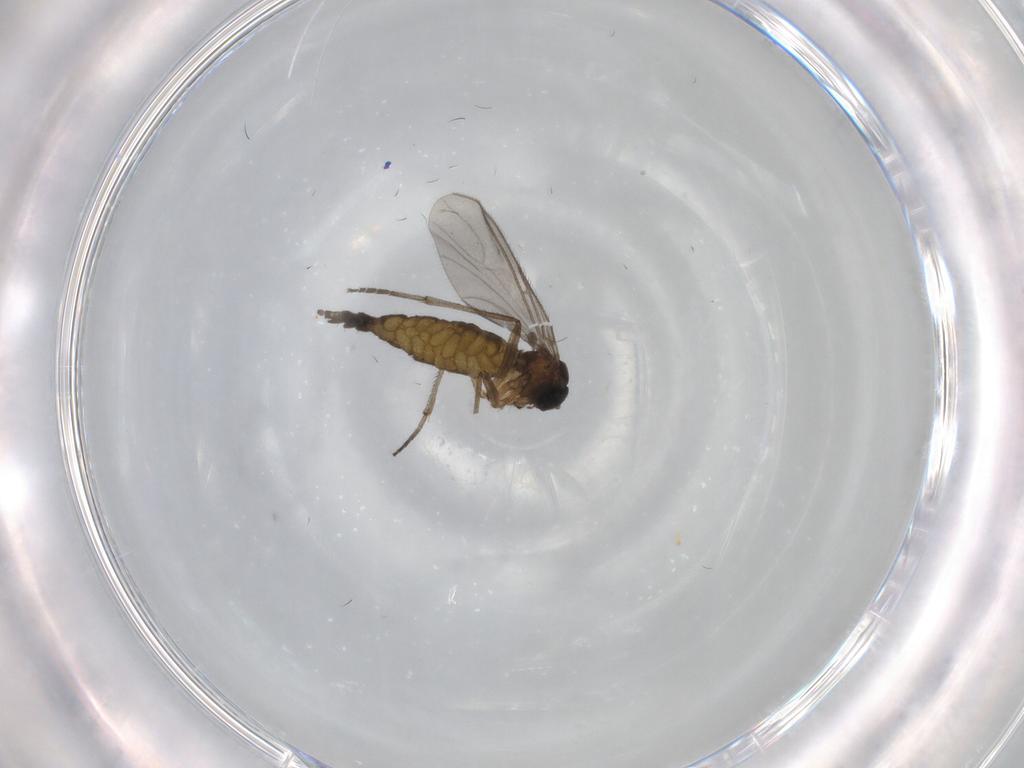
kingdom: Animalia
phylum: Arthropoda
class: Insecta
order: Diptera
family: Sciaridae
